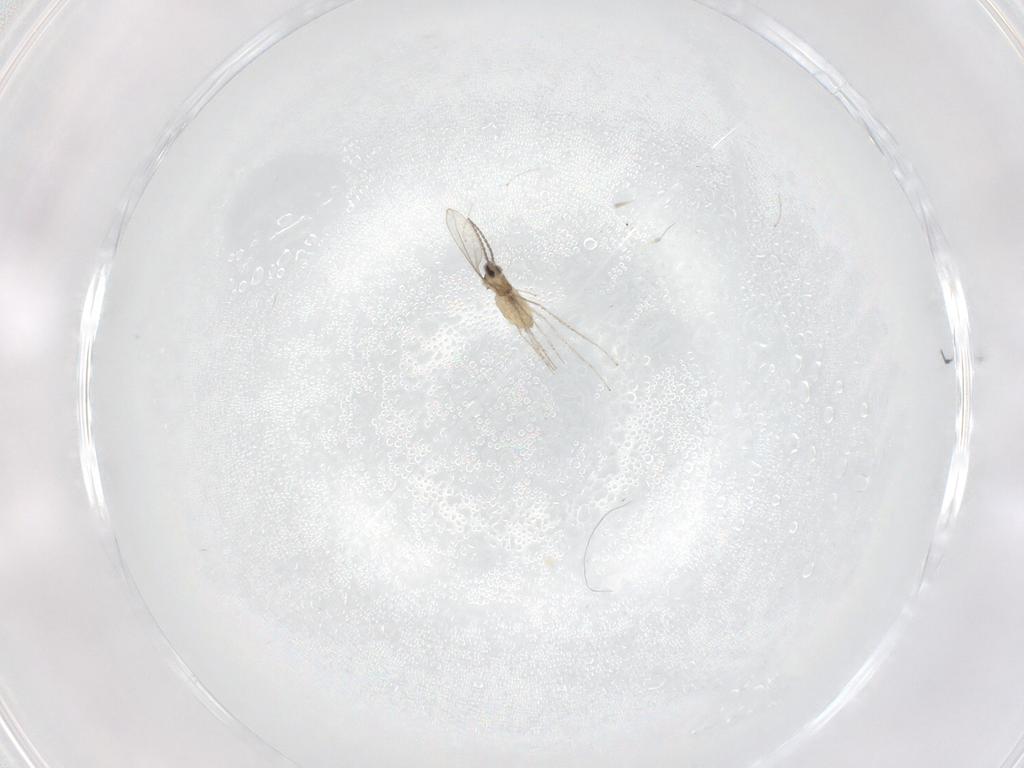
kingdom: Animalia
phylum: Arthropoda
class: Insecta
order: Diptera
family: Cecidomyiidae
